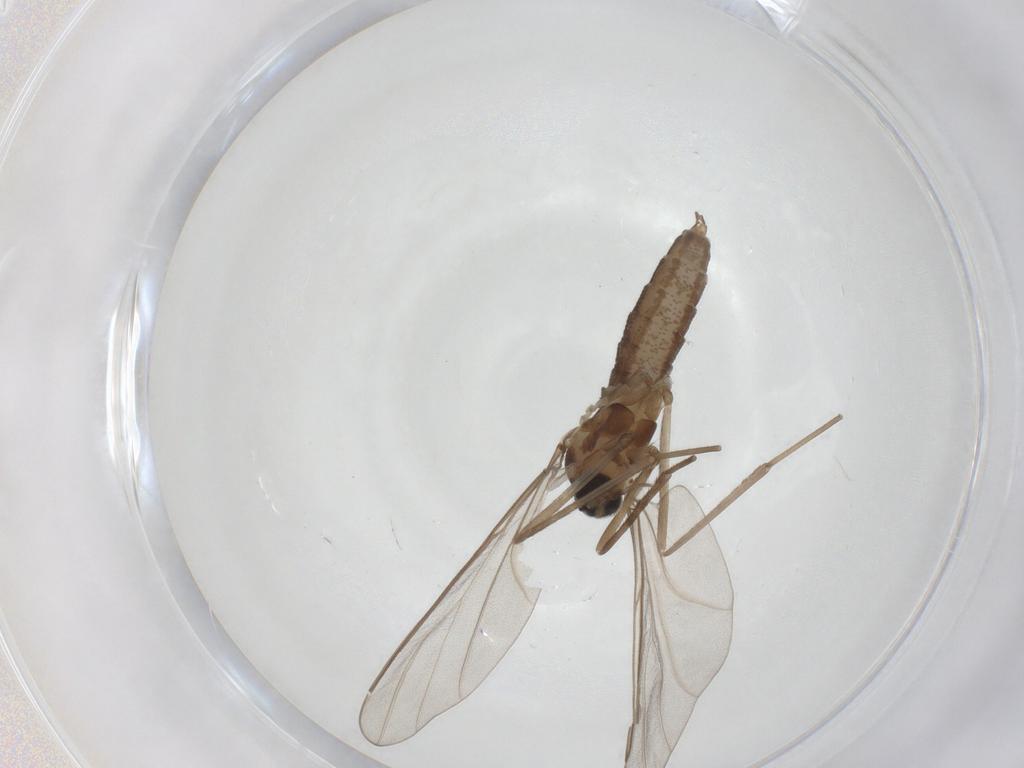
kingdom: Animalia
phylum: Arthropoda
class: Insecta
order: Diptera
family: Cecidomyiidae
